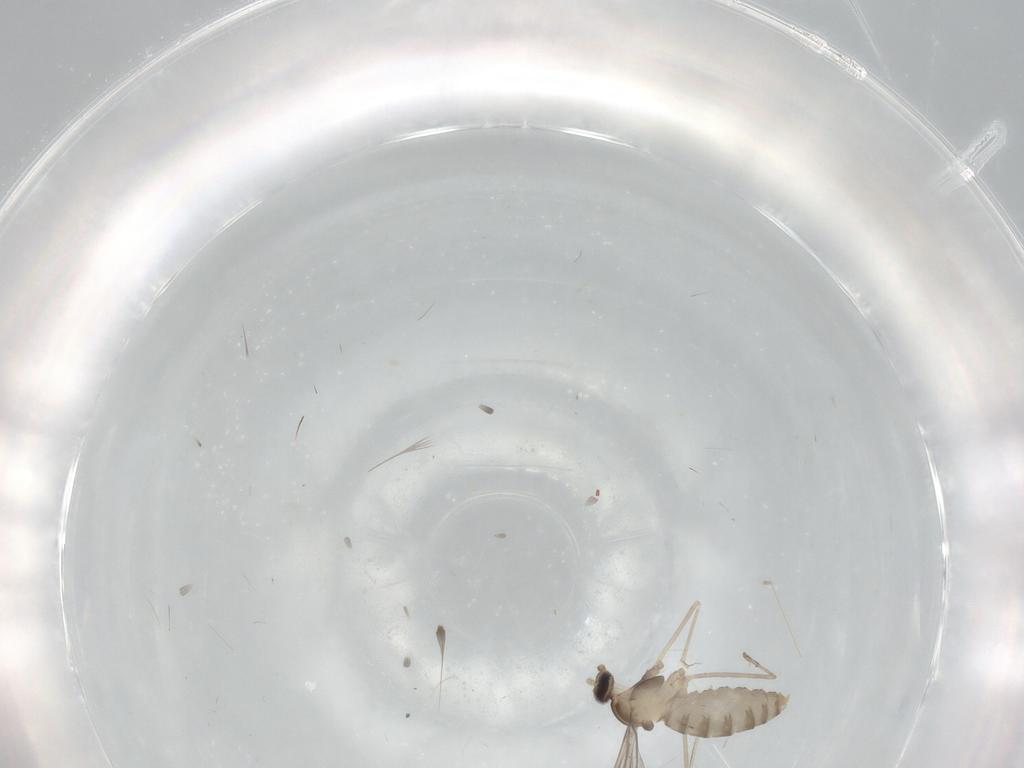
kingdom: Animalia
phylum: Arthropoda
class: Insecta
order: Diptera
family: Cecidomyiidae
